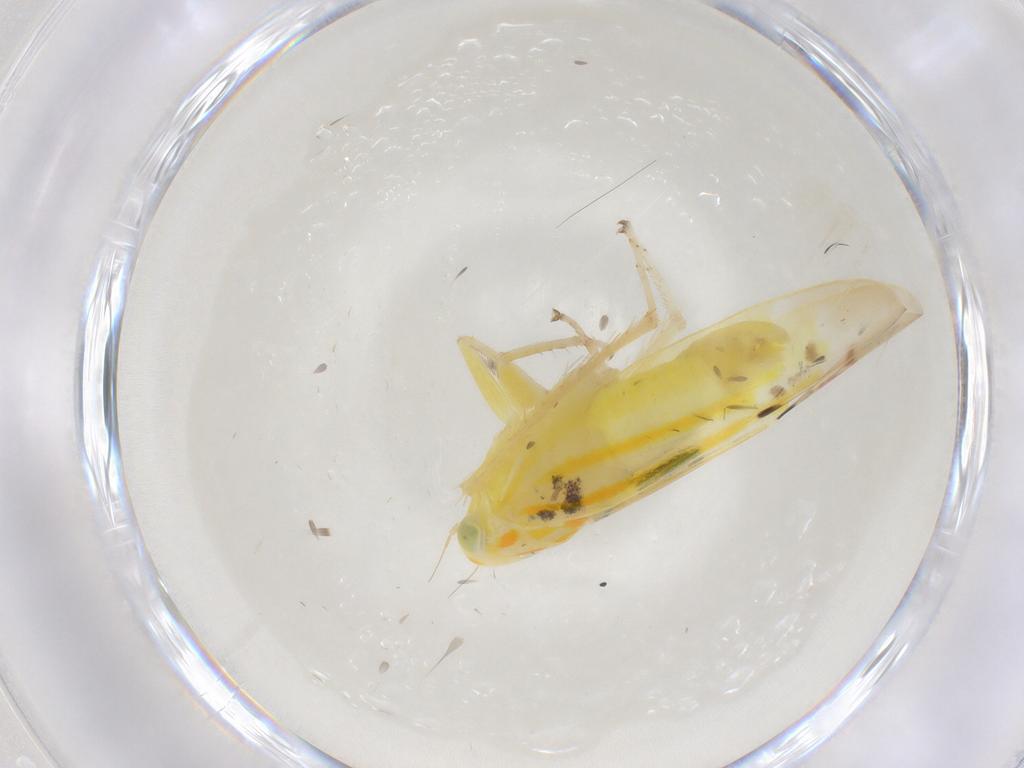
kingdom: Animalia
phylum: Arthropoda
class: Insecta
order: Hemiptera
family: Cicadellidae
